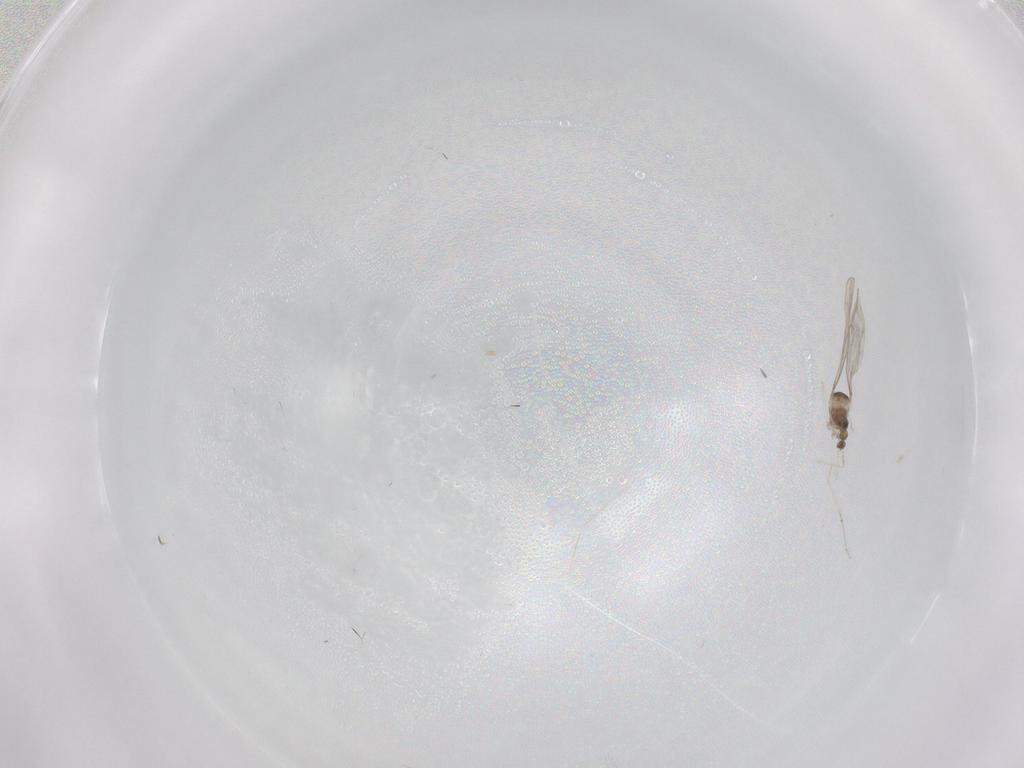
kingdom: Animalia
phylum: Arthropoda
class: Insecta
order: Diptera
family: Cecidomyiidae
